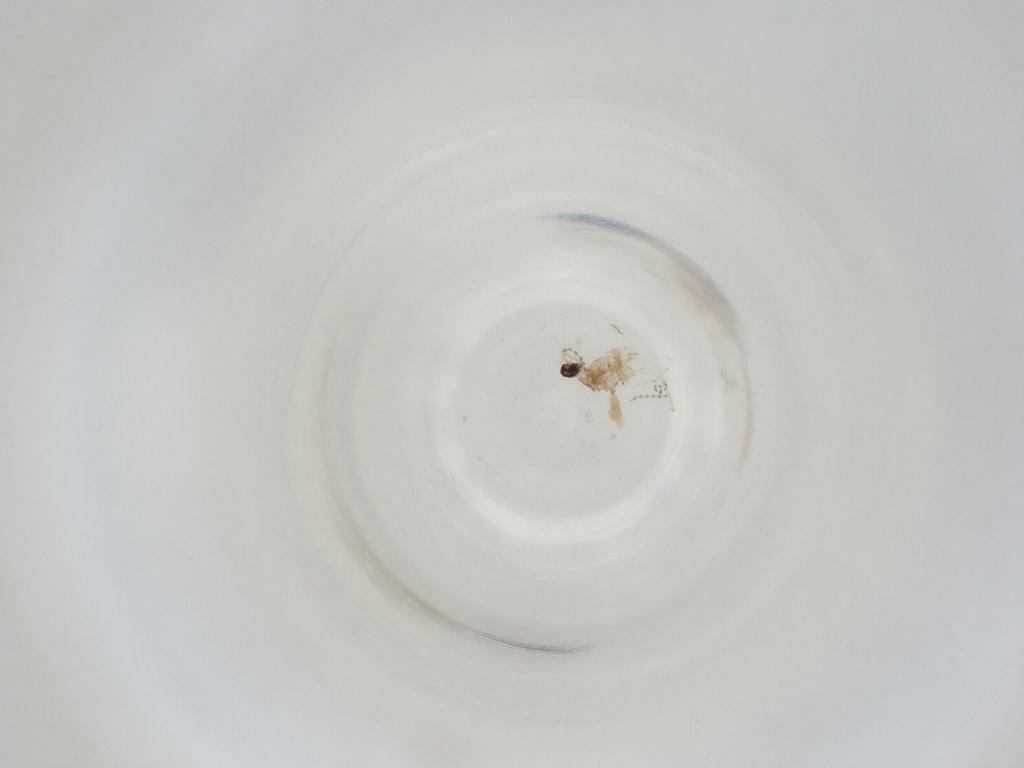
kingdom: Animalia
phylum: Arthropoda
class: Insecta
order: Diptera
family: Cecidomyiidae
